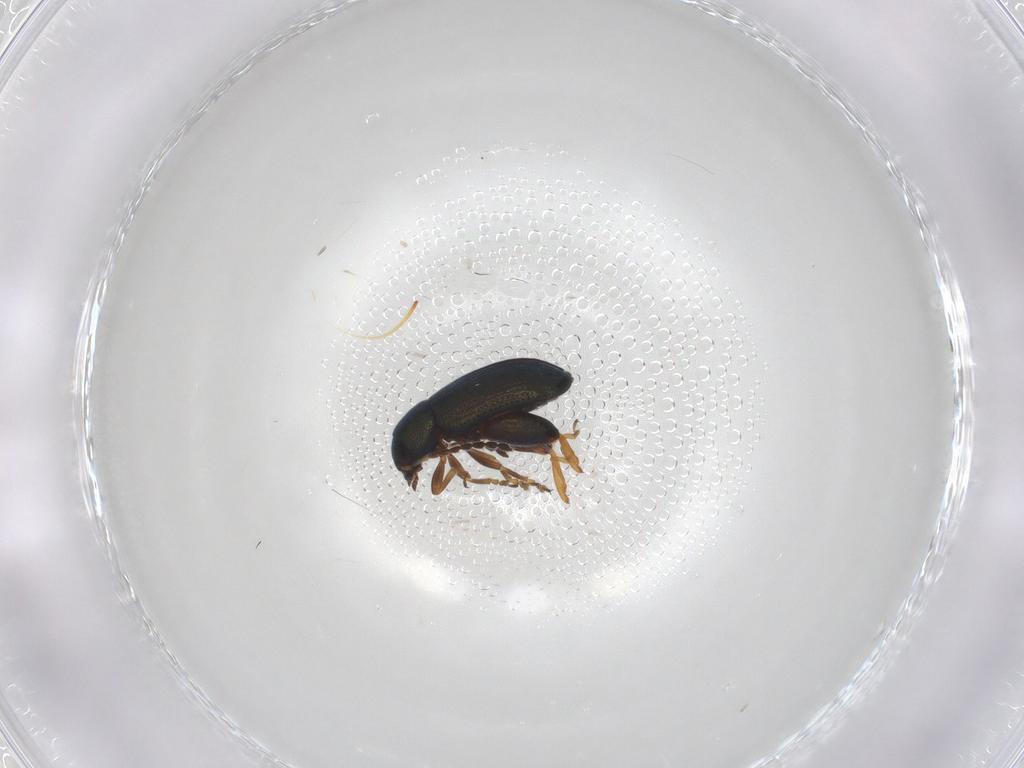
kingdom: Animalia
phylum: Arthropoda
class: Insecta
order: Coleoptera
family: Chrysomelidae
